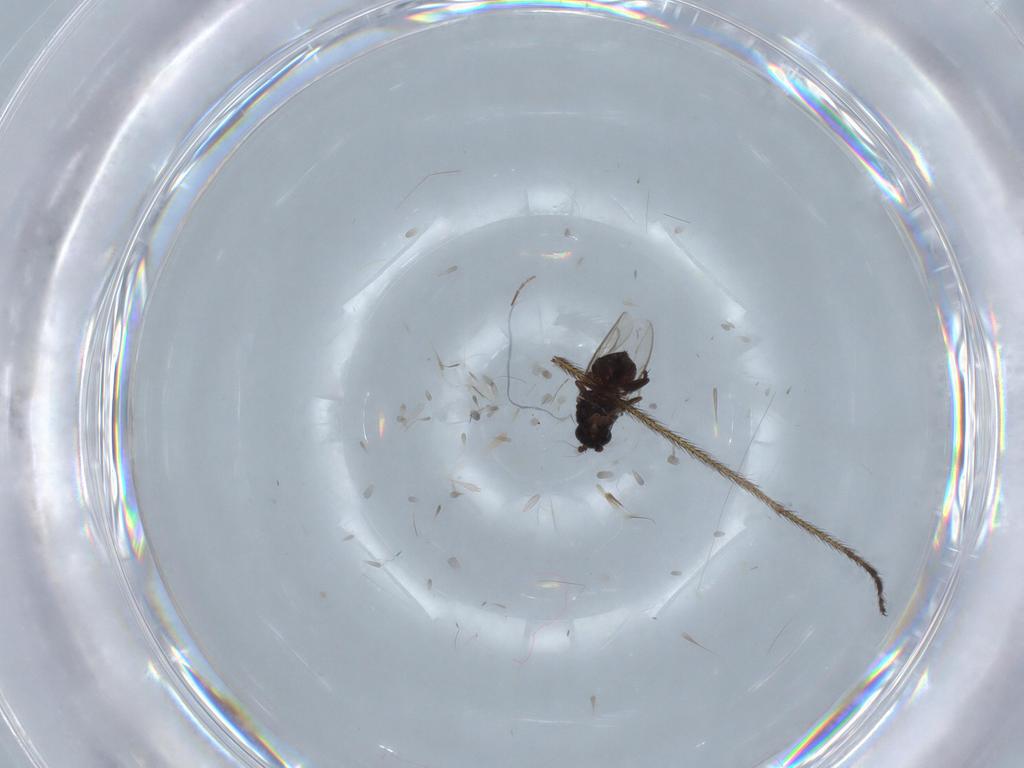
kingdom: Animalia
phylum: Arthropoda
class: Insecta
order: Diptera
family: Sphaeroceridae
